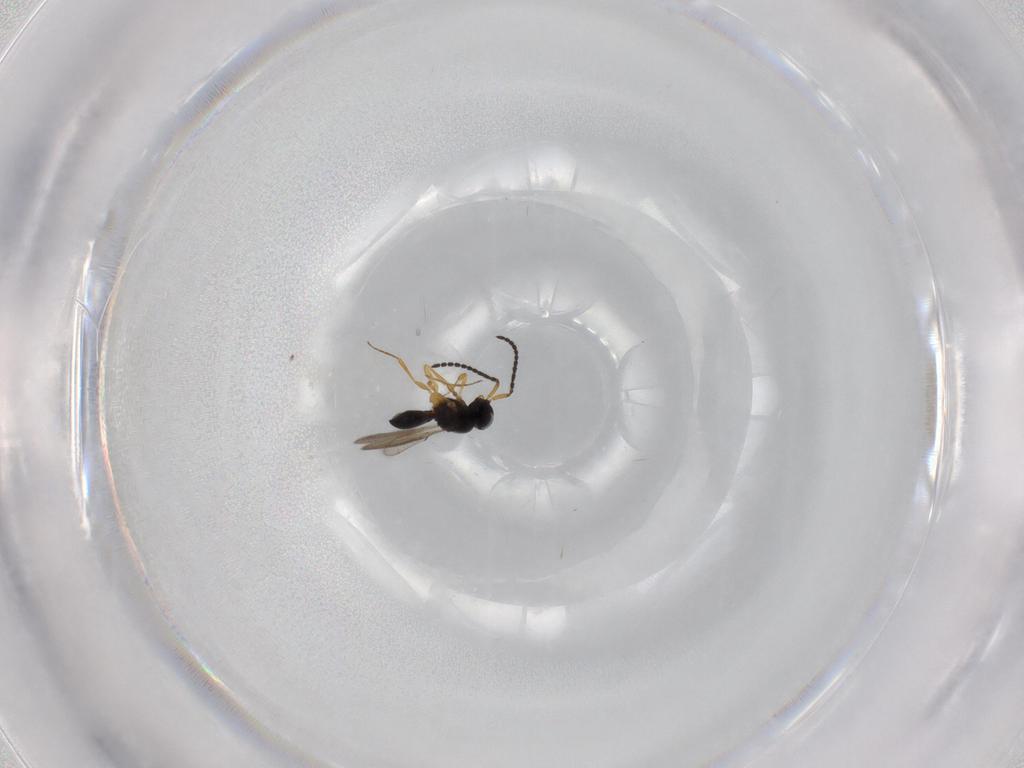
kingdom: Animalia
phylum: Arthropoda
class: Insecta
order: Hymenoptera
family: Scelionidae
